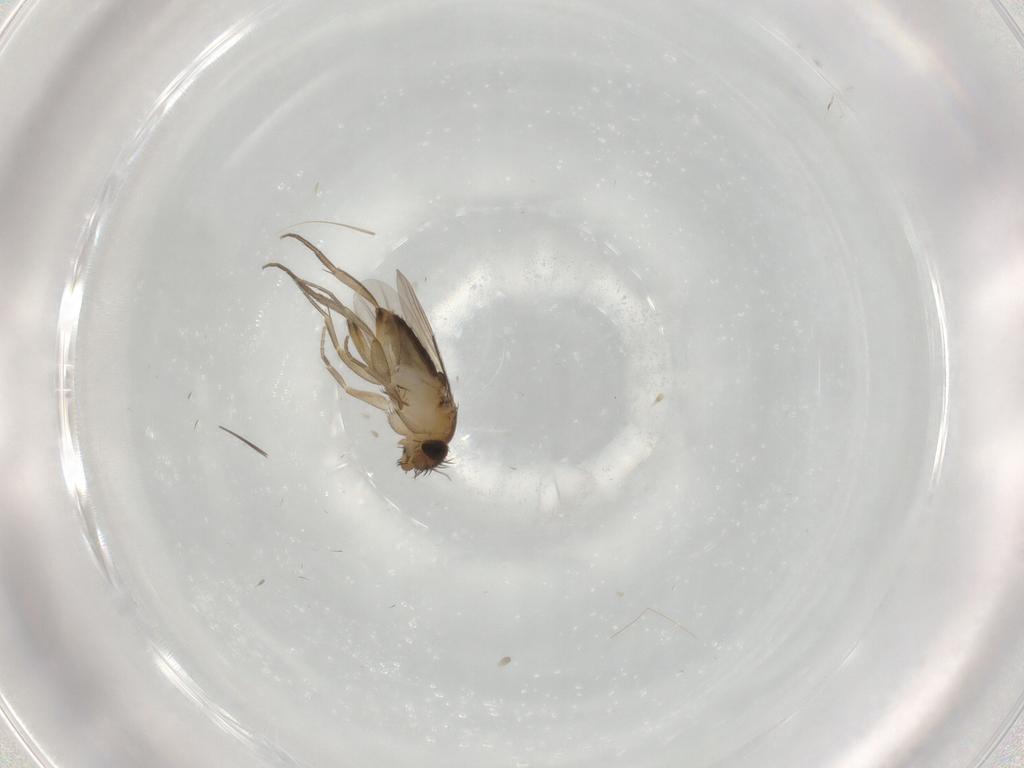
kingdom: Animalia
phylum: Arthropoda
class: Insecta
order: Diptera
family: Phoridae
